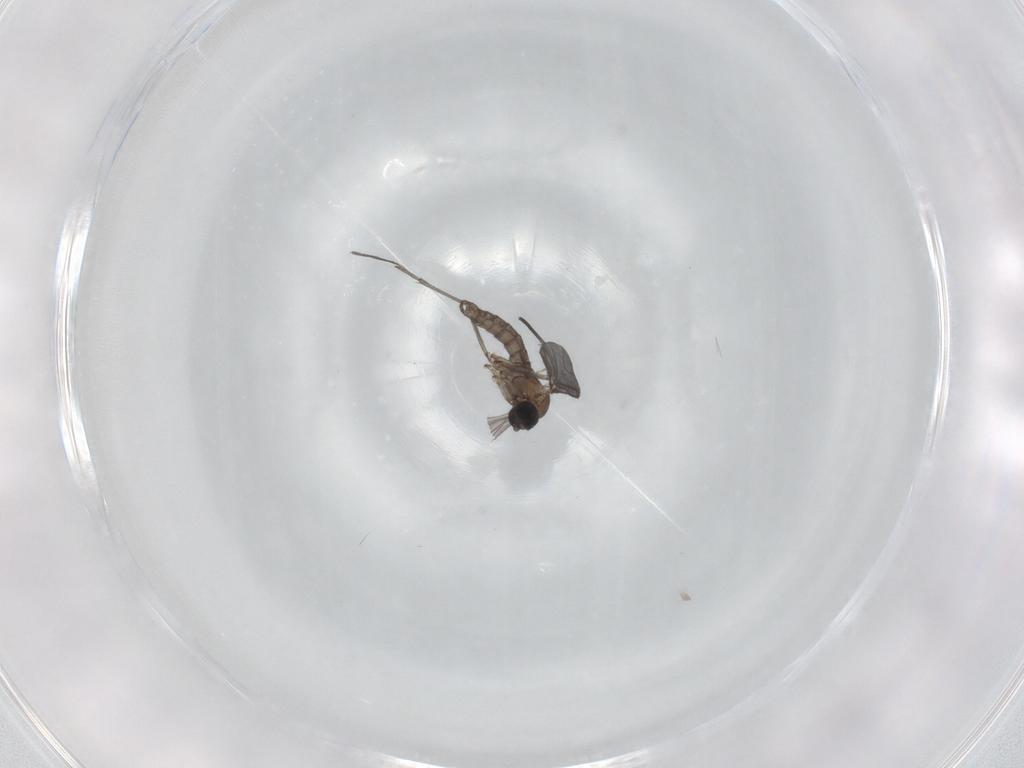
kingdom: Animalia
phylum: Arthropoda
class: Insecta
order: Diptera
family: Sciaridae
